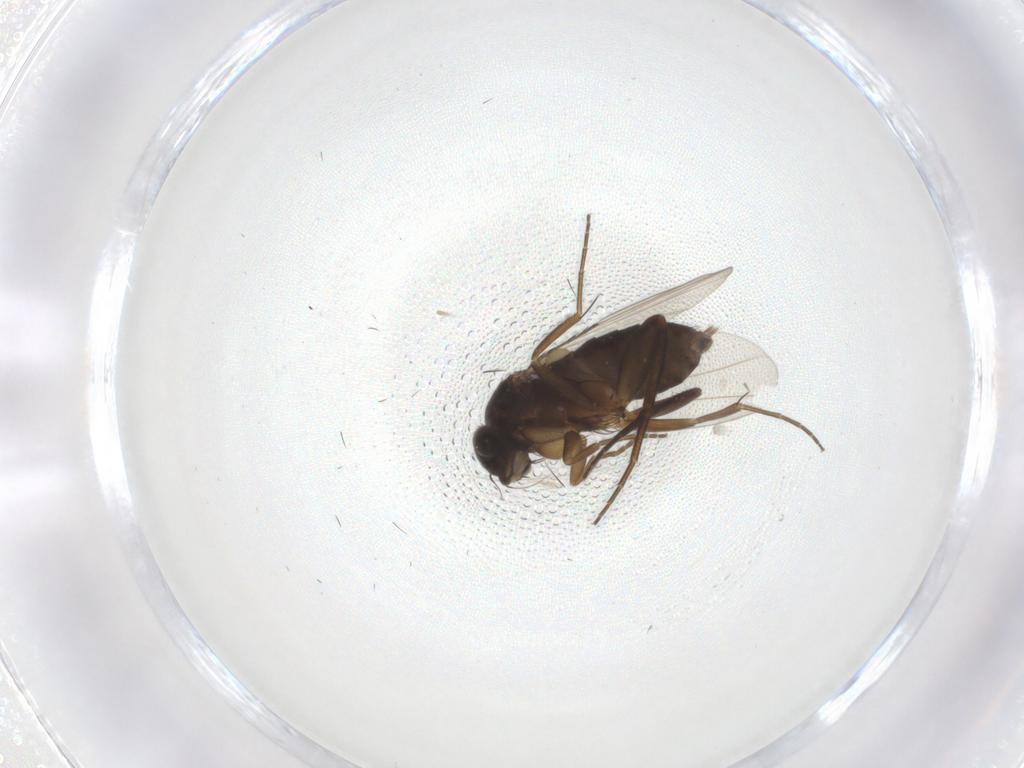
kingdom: Animalia
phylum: Arthropoda
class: Insecta
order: Diptera
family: Phoridae
